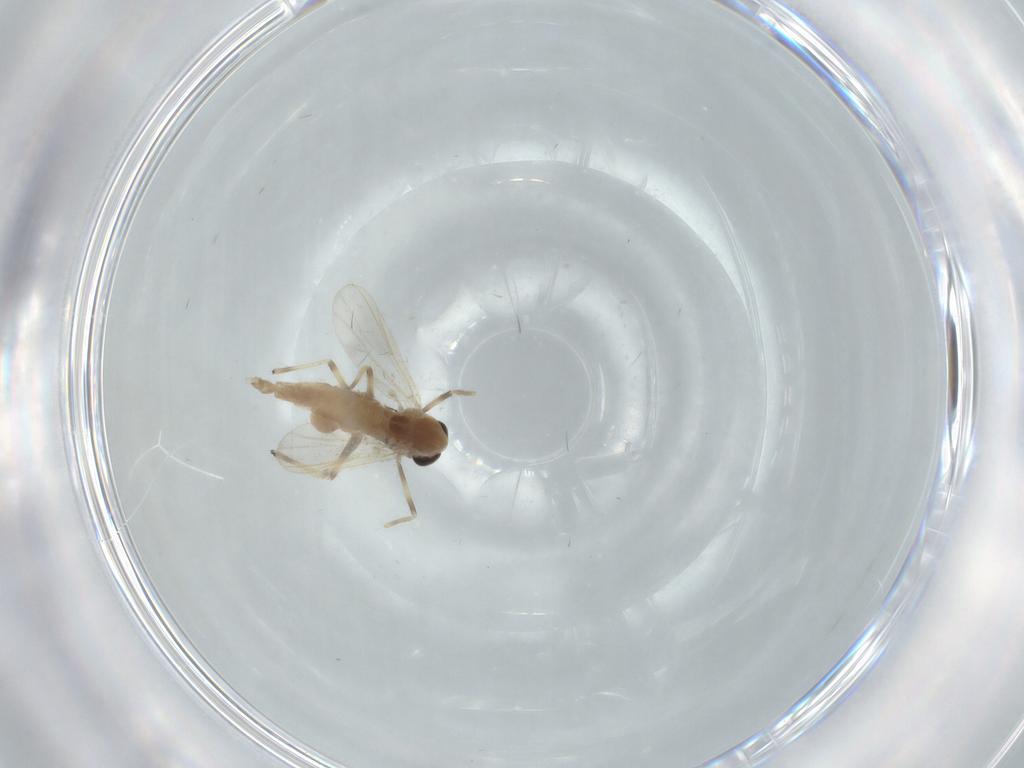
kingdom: Animalia
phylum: Arthropoda
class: Insecta
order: Diptera
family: Chironomidae
